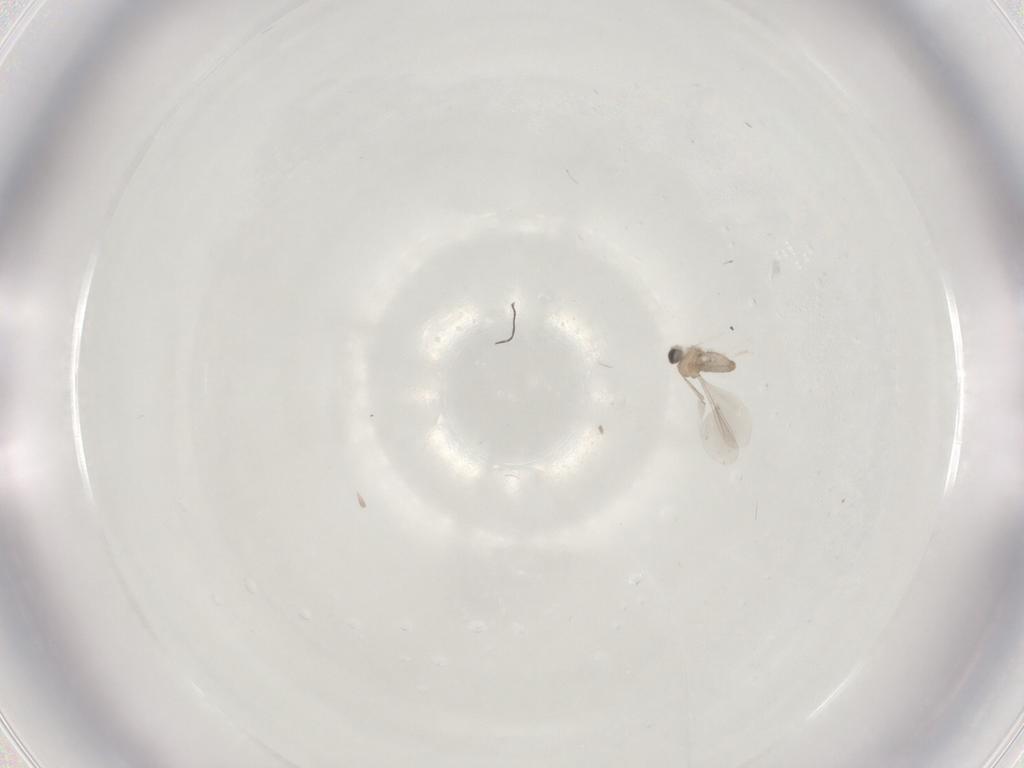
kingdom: Animalia
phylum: Arthropoda
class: Insecta
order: Diptera
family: Cecidomyiidae
